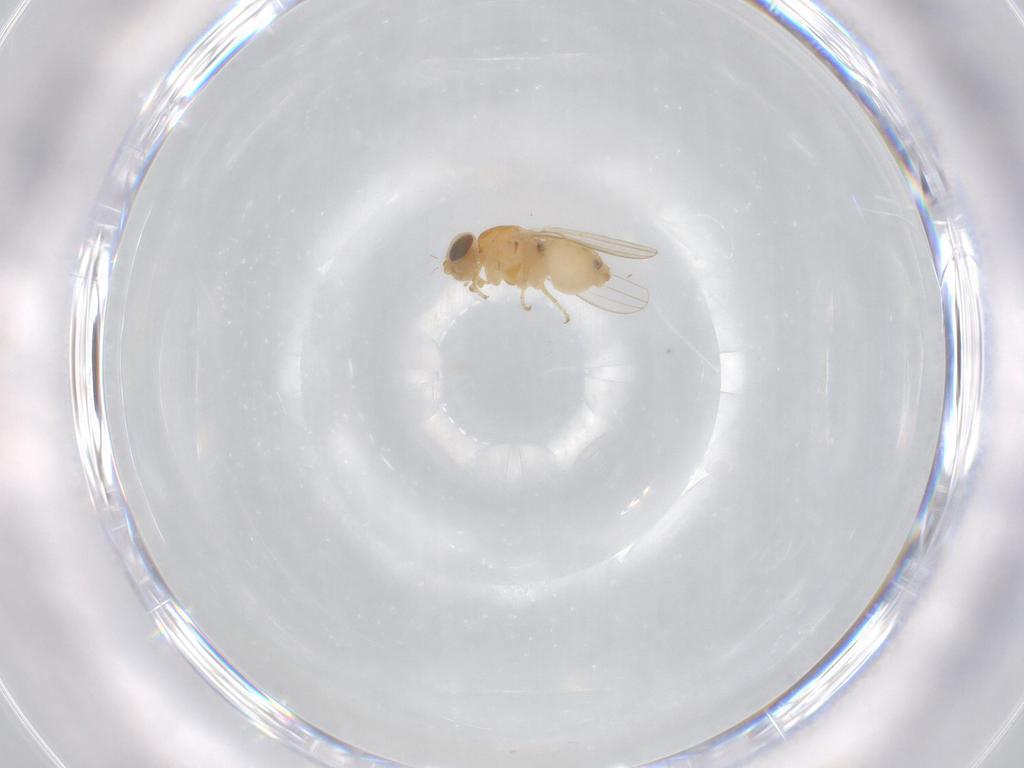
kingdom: Animalia
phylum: Arthropoda
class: Insecta
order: Diptera
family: Chyromyidae
